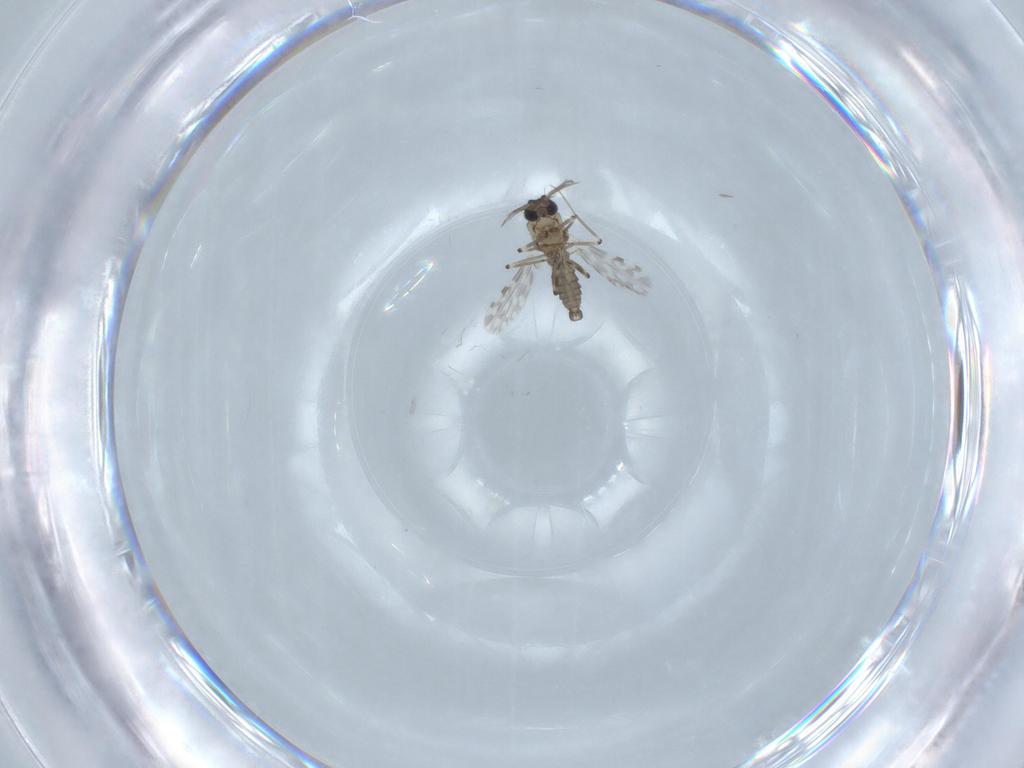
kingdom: Animalia
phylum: Arthropoda
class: Insecta
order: Diptera
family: Ceratopogonidae
